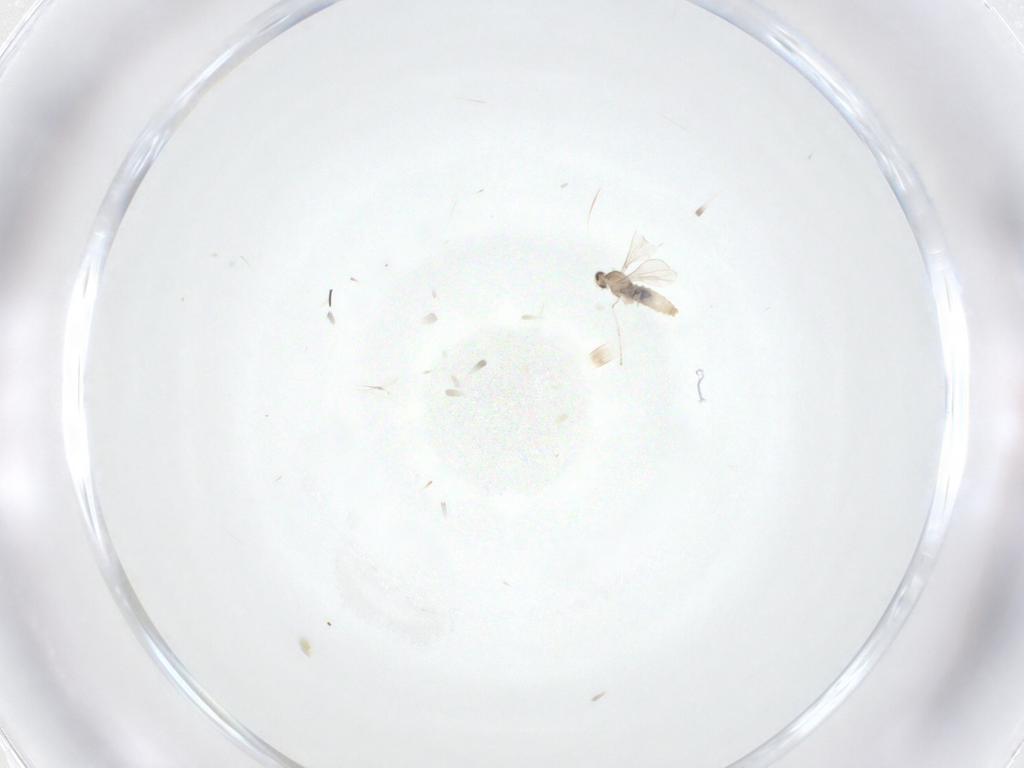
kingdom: Animalia
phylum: Arthropoda
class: Insecta
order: Diptera
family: Cecidomyiidae
